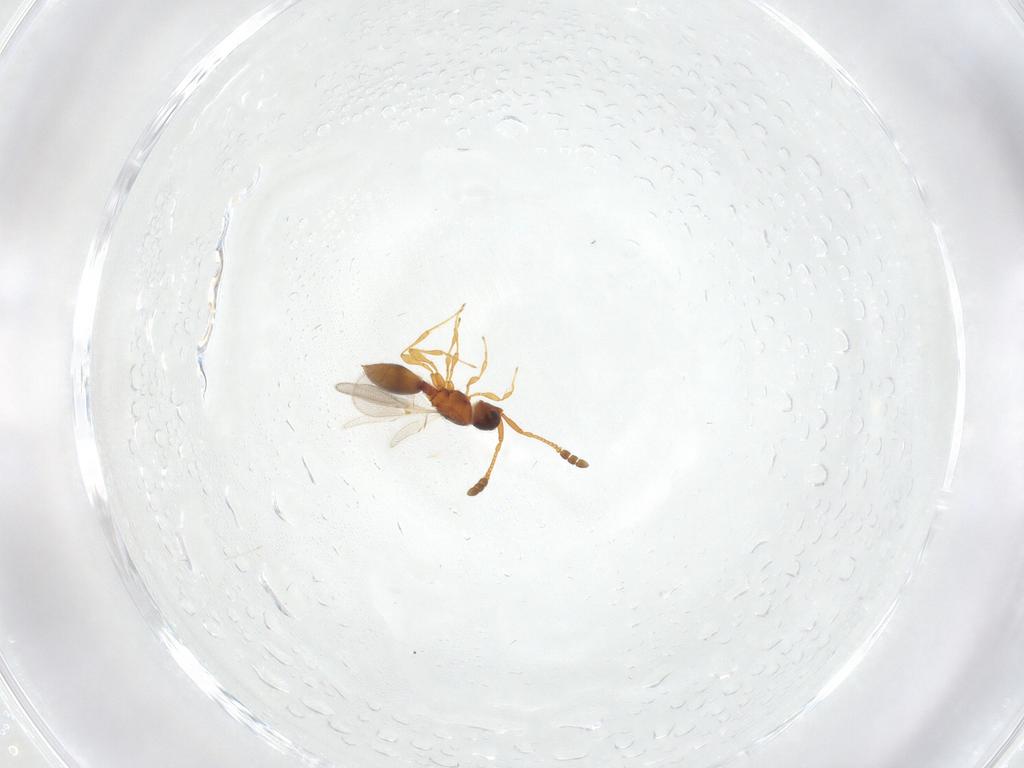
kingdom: Animalia
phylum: Arthropoda
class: Insecta
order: Hymenoptera
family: Diapriidae
